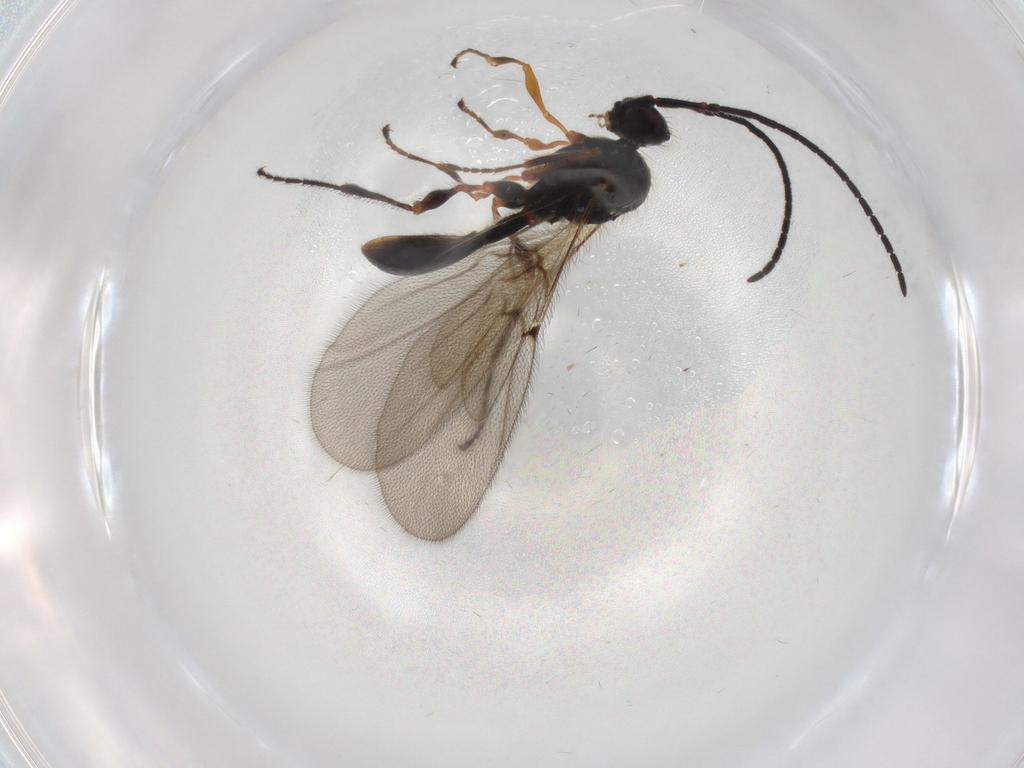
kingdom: Animalia
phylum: Arthropoda
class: Insecta
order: Hymenoptera
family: Diapriidae
